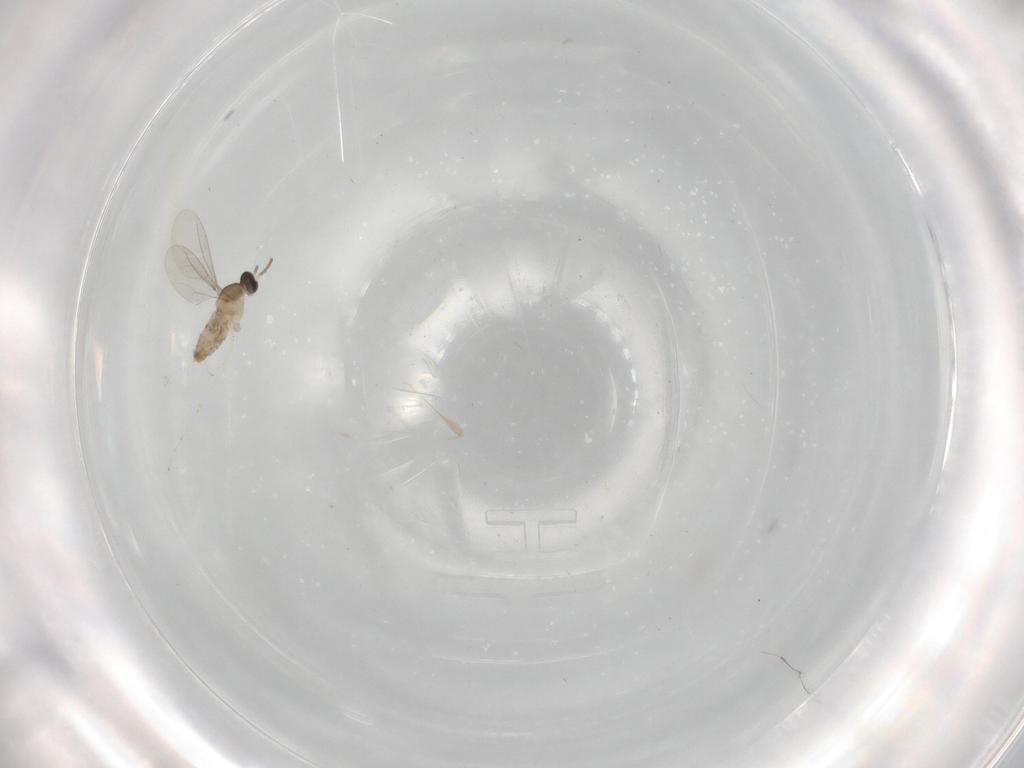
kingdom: Animalia
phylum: Arthropoda
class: Insecta
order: Diptera
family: Cecidomyiidae
